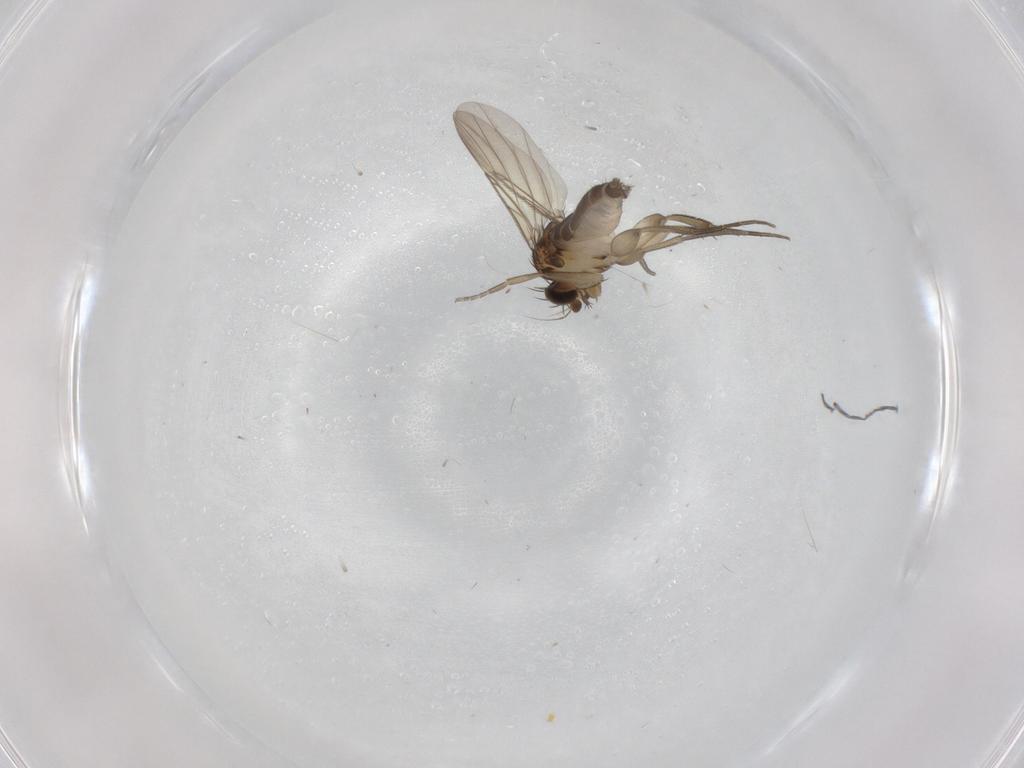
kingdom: Animalia
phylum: Arthropoda
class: Insecta
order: Diptera
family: Phoridae
